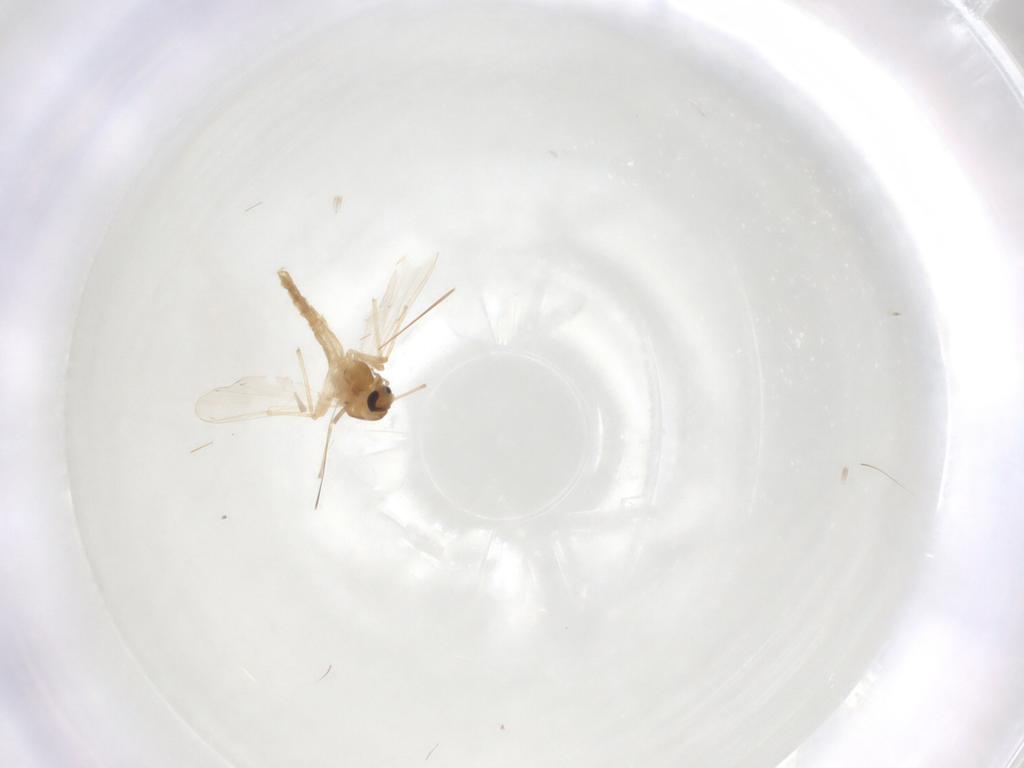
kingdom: Animalia
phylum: Arthropoda
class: Insecta
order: Diptera
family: Chironomidae
